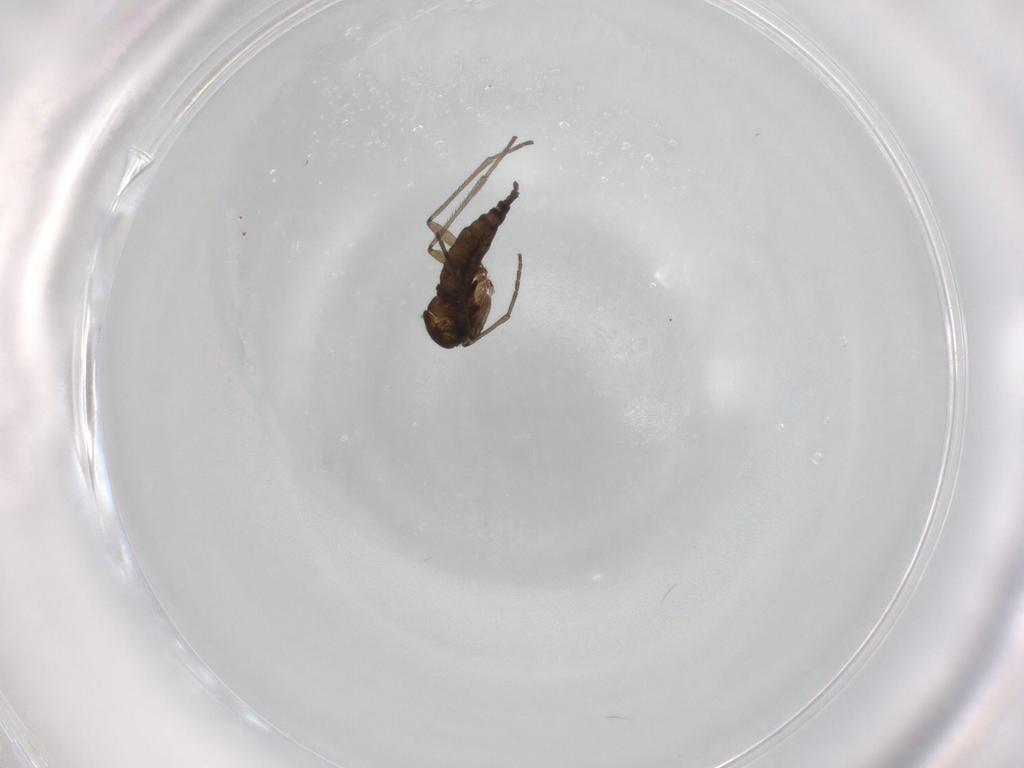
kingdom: Animalia
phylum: Arthropoda
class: Insecta
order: Diptera
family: Sciaridae
